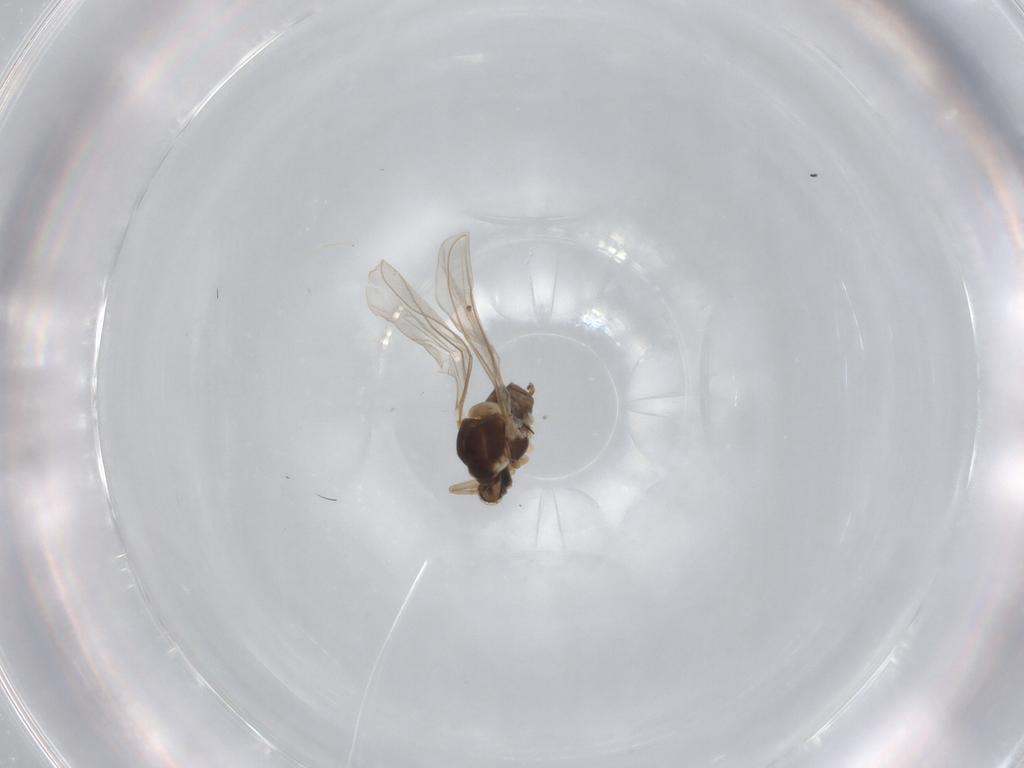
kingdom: Animalia
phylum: Arthropoda
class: Insecta
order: Diptera
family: Cecidomyiidae
